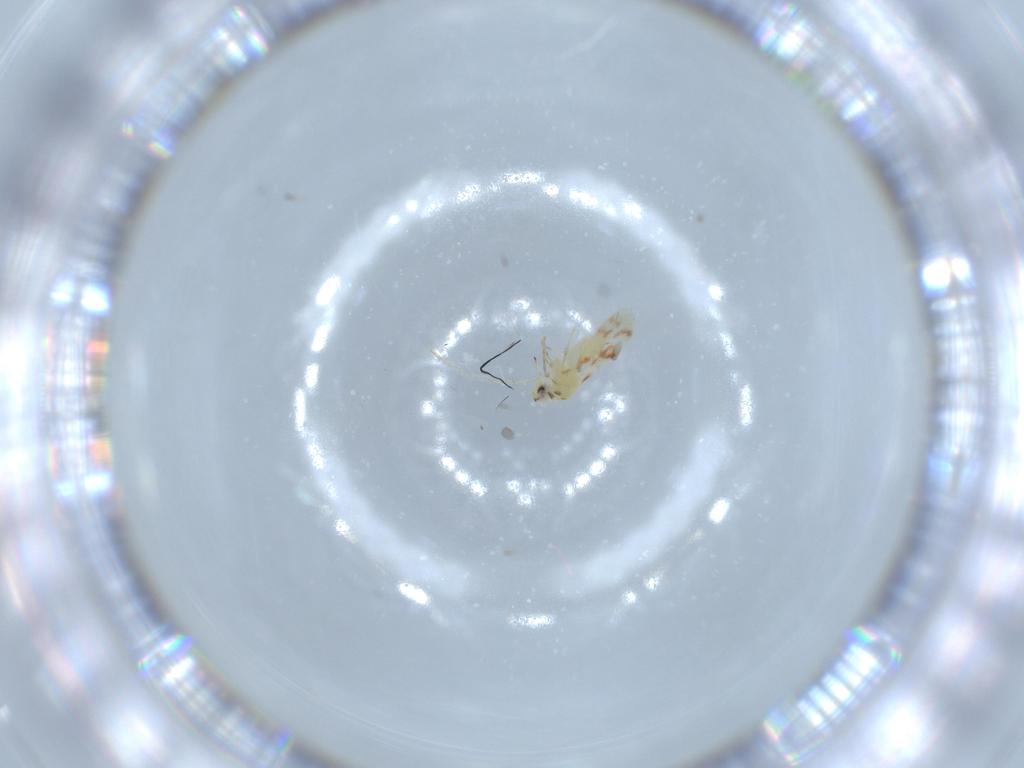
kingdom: Animalia
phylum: Arthropoda
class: Insecta
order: Hemiptera
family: Aleyrodidae
